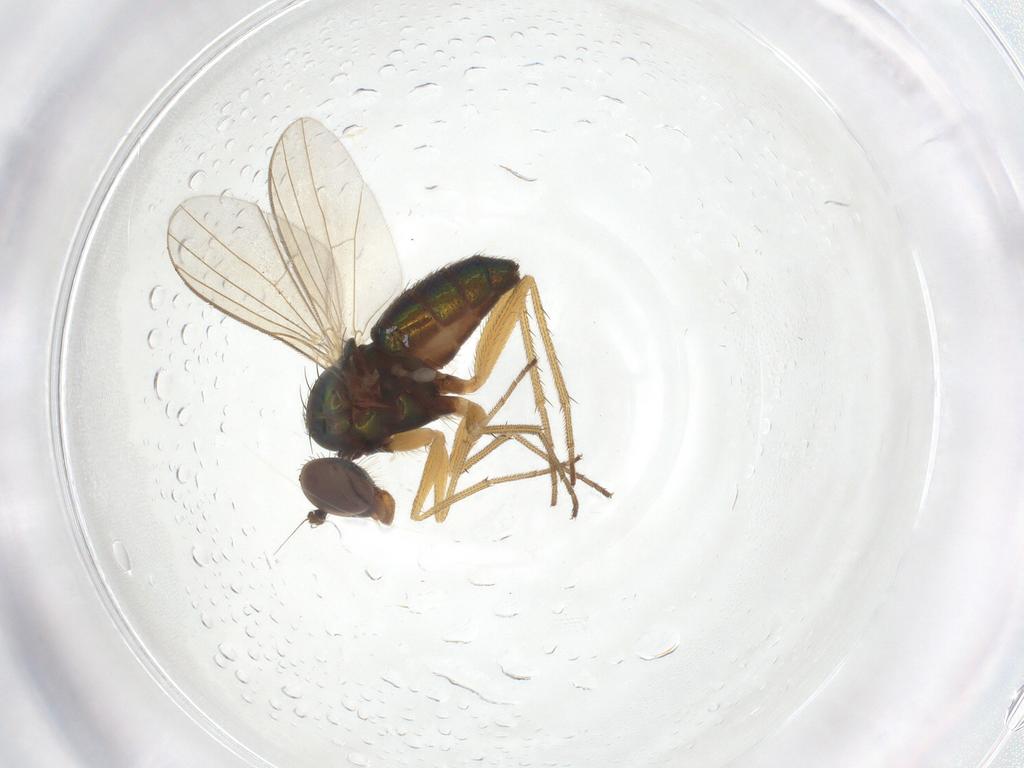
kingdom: Animalia
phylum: Arthropoda
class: Insecta
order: Diptera
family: Dolichopodidae
